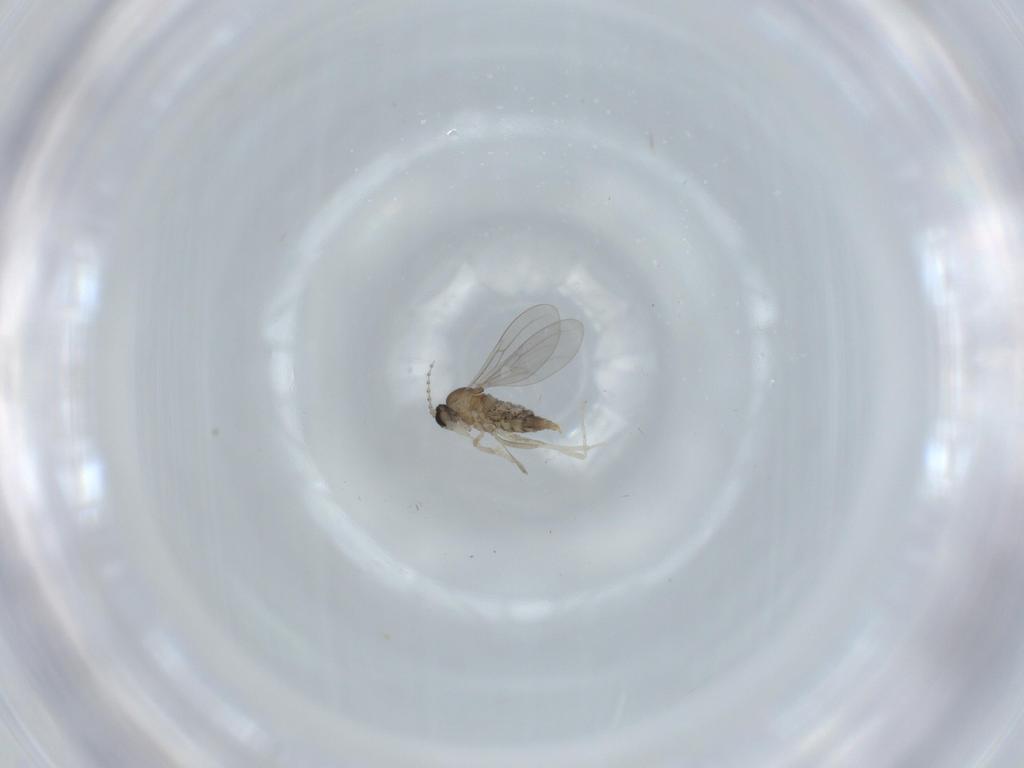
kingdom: Animalia
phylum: Arthropoda
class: Insecta
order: Diptera
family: Cecidomyiidae
